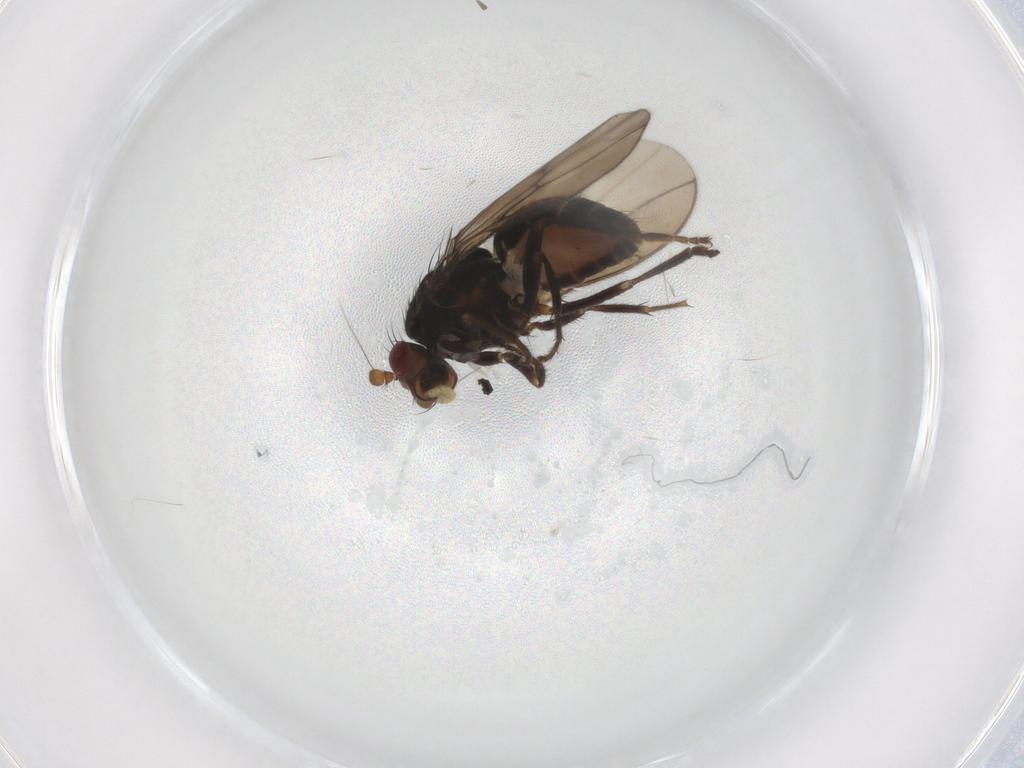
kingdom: Animalia
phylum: Arthropoda
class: Insecta
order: Diptera
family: Sphaeroceridae
